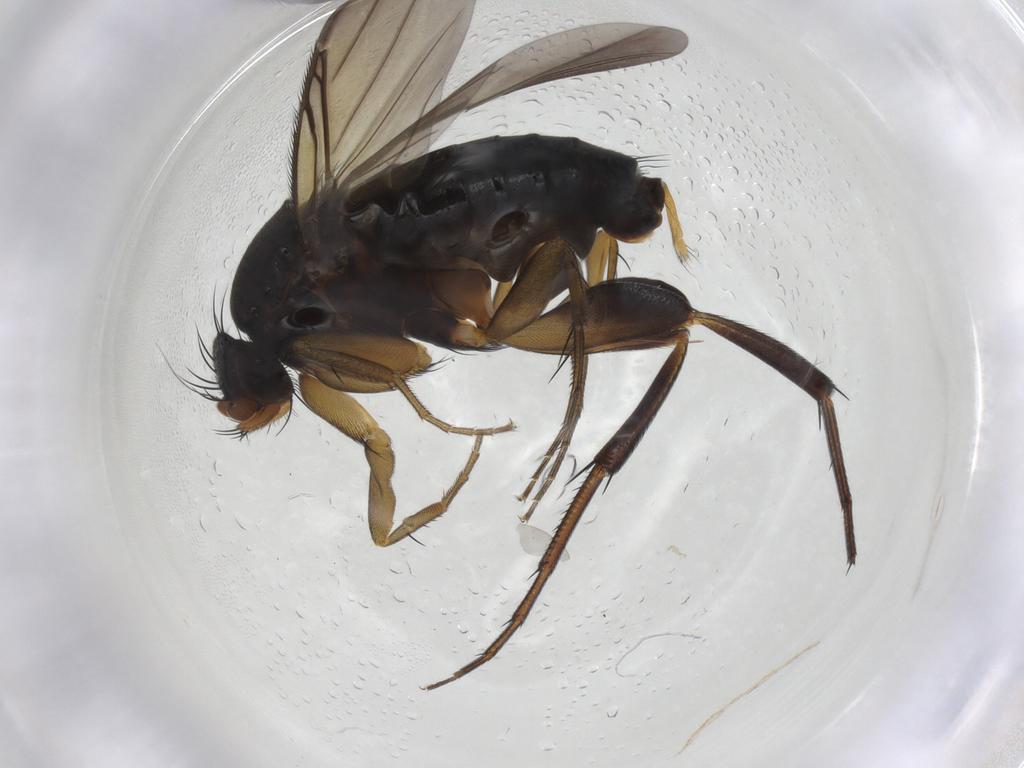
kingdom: Animalia
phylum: Arthropoda
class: Insecta
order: Diptera
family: Phoridae
